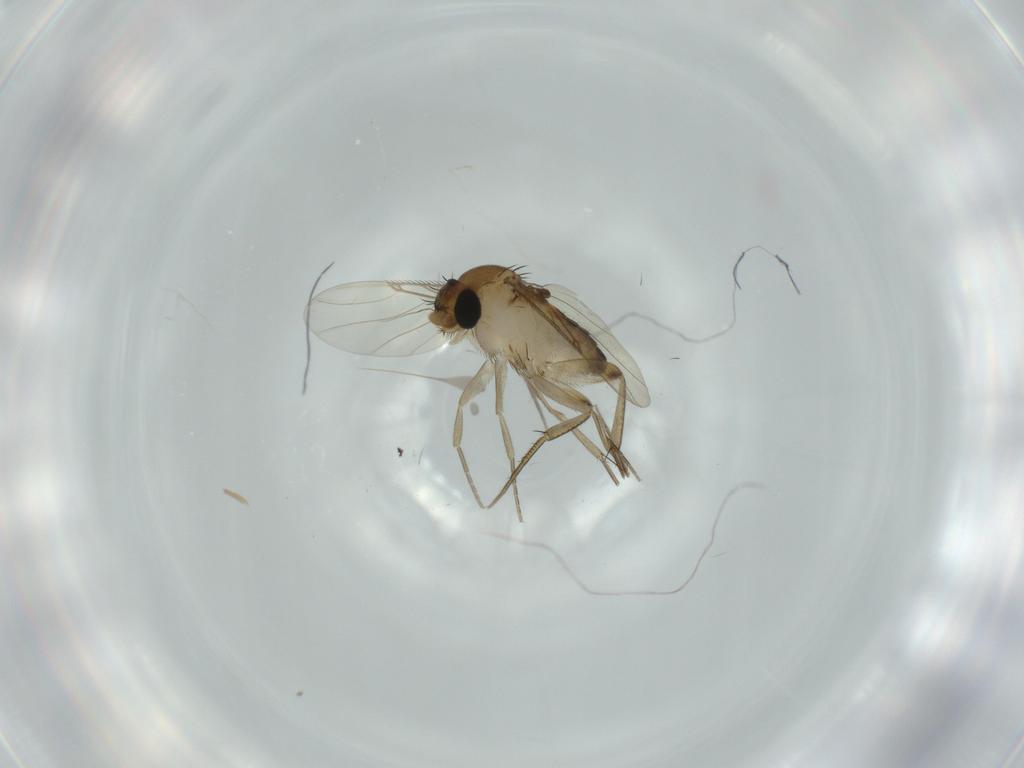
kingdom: Animalia
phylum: Arthropoda
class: Insecta
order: Diptera
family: Phoridae
